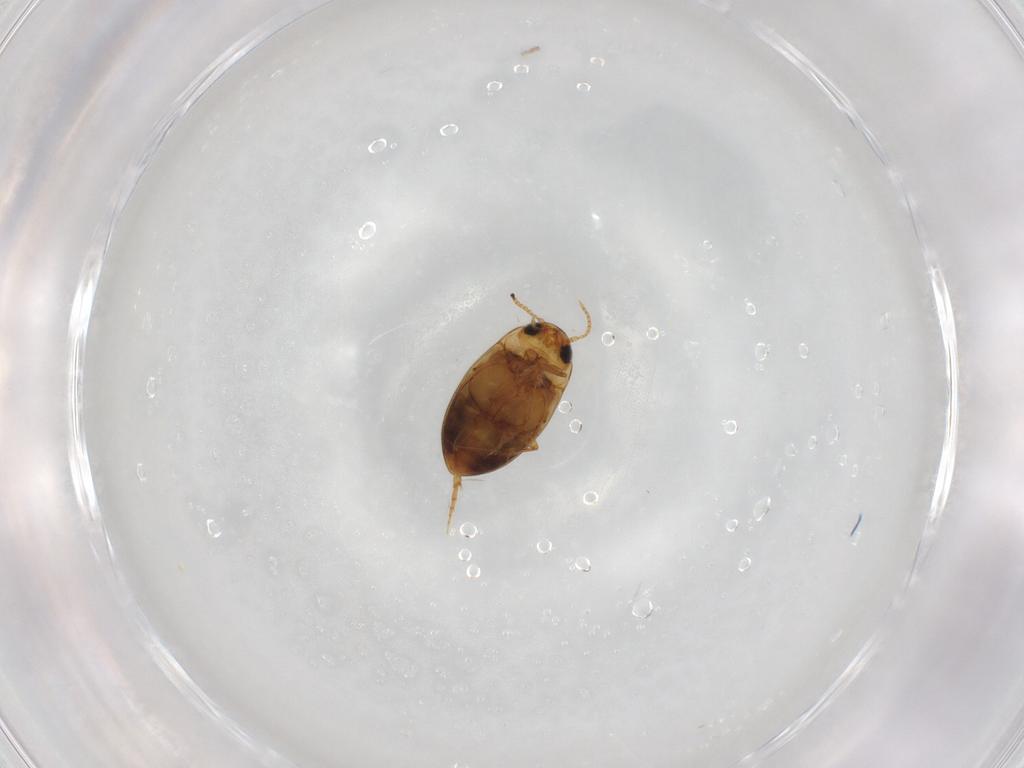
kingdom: Animalia
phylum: Arthropoda
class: Insecta
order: Coleoptera
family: Dytiscidae
